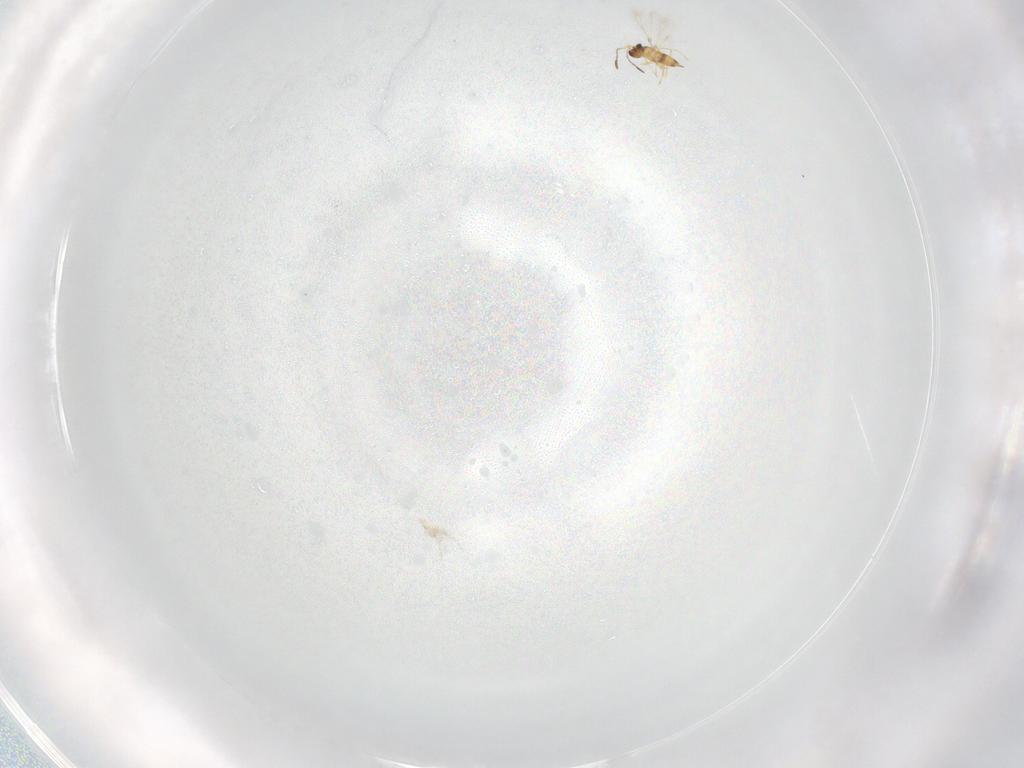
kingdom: Animalia
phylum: Arthropoda
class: Insecta
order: Hymenoptera
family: Mymaridae
